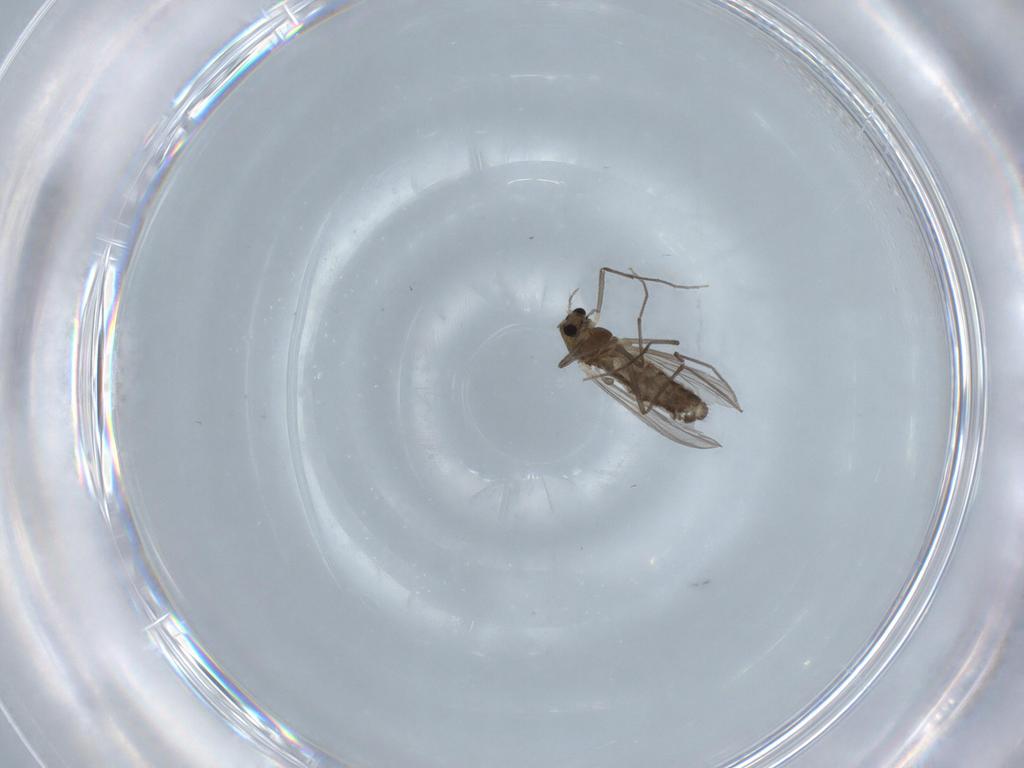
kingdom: Animalia
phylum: Arthropoda
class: Insecta
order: Diptera
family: Chironomidae
